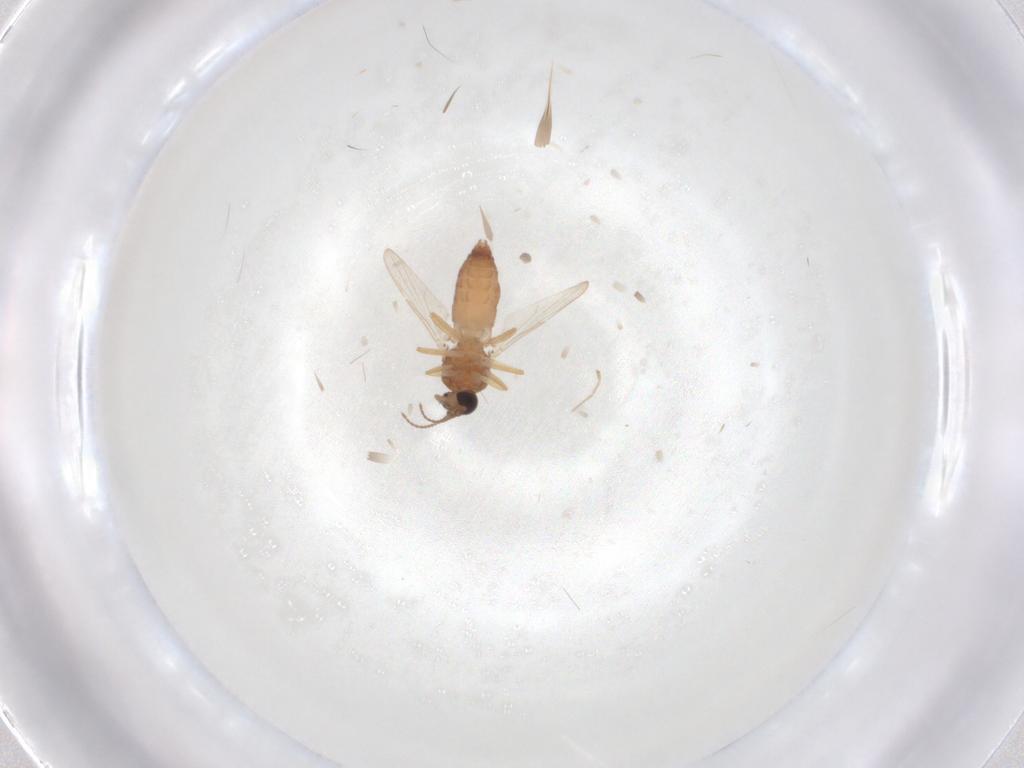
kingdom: Animalia
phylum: Arthropoda
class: Insecta
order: Diptera
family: Ceratopogonidae
